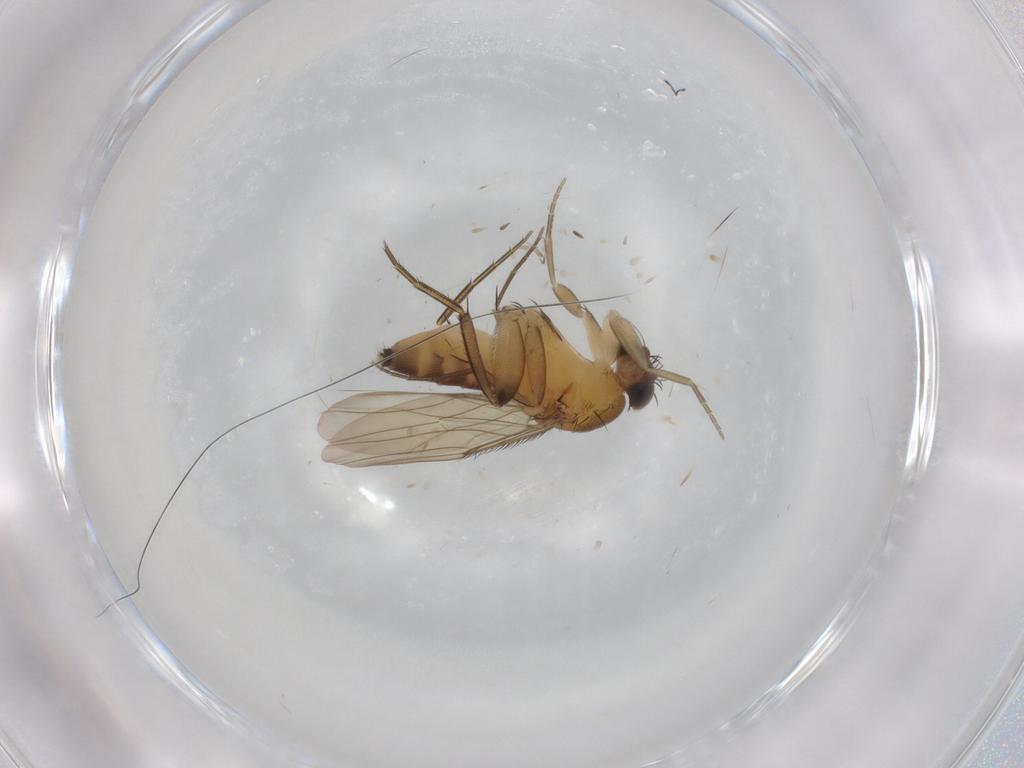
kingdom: Animalia
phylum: Arthropoda
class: Insecta
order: Diptera
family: Phoridae
